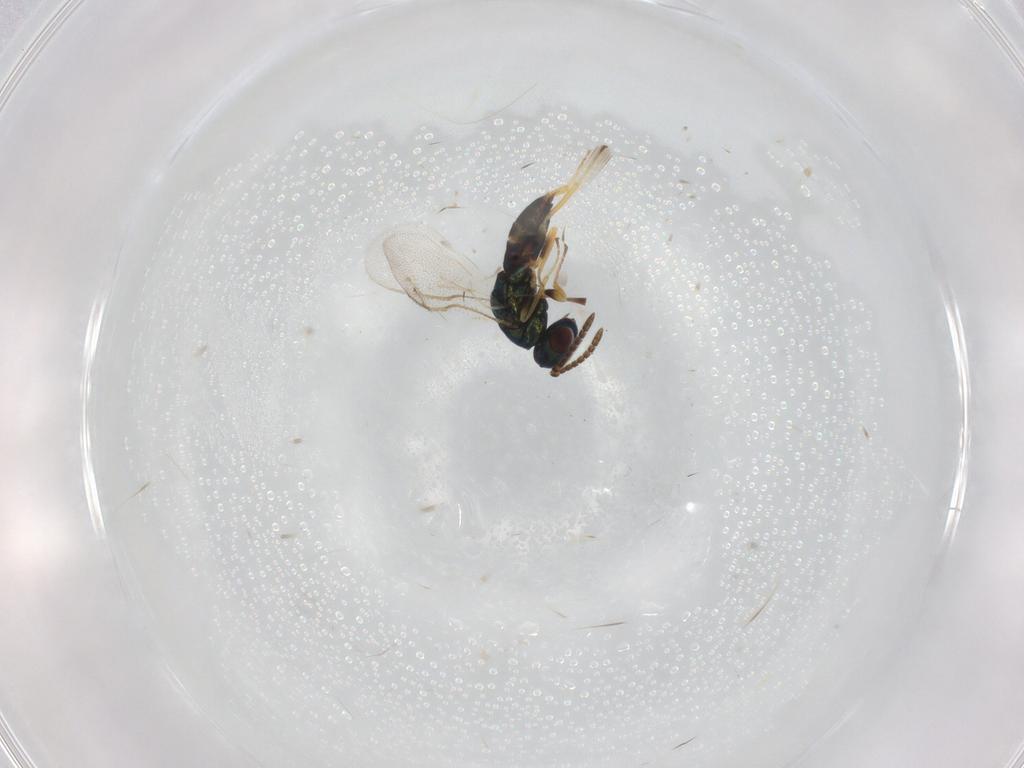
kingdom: Animalia
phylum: Arthropoda
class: Insecta
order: Hymenoptera
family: Pteromalidae
